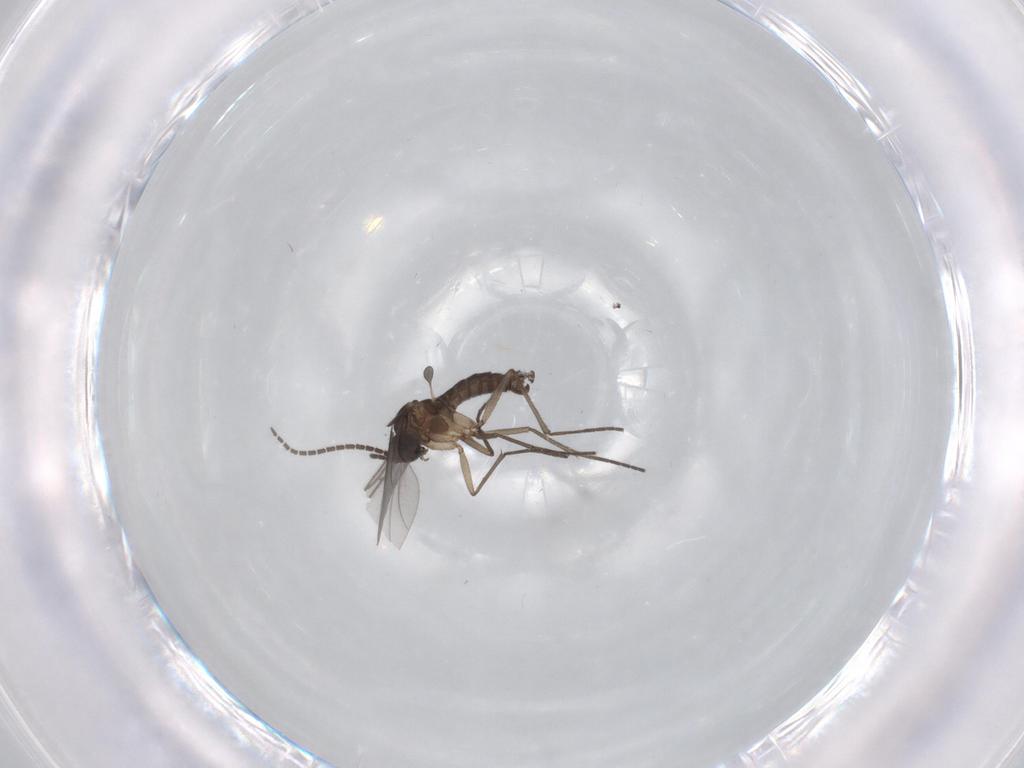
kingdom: Animalia
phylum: Arthropoda
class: Insecta
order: Diptera
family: Sciaridae
